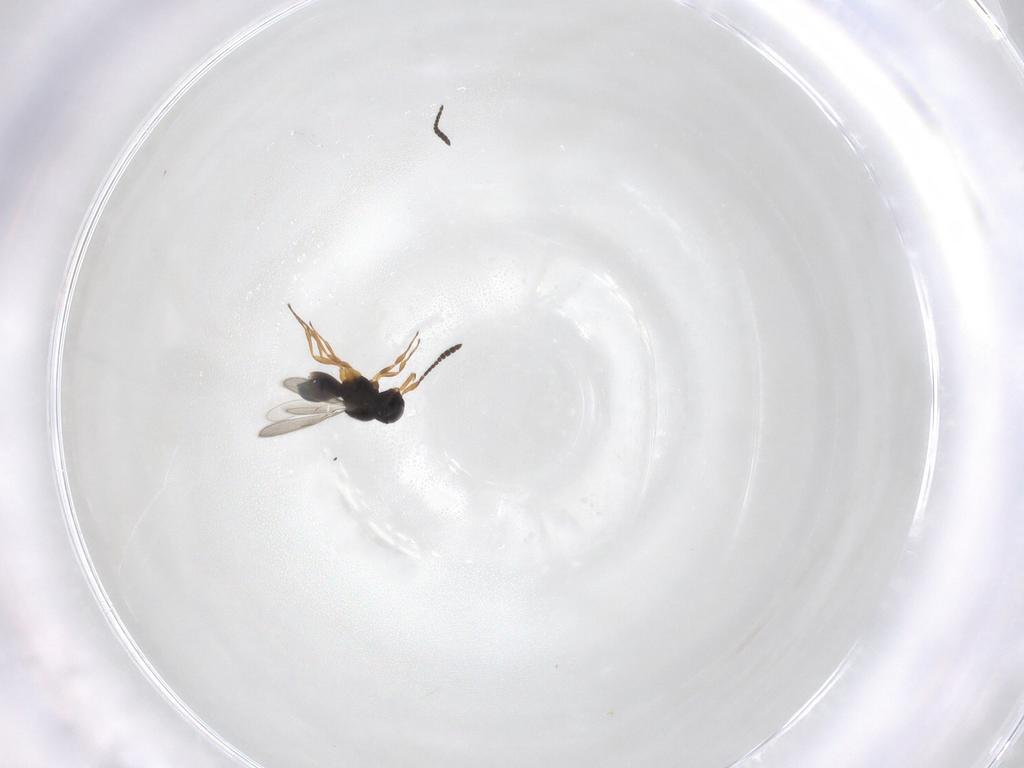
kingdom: Animalia
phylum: Arthropoda
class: Insecta
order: Hymenoptera
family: Scelionidae
